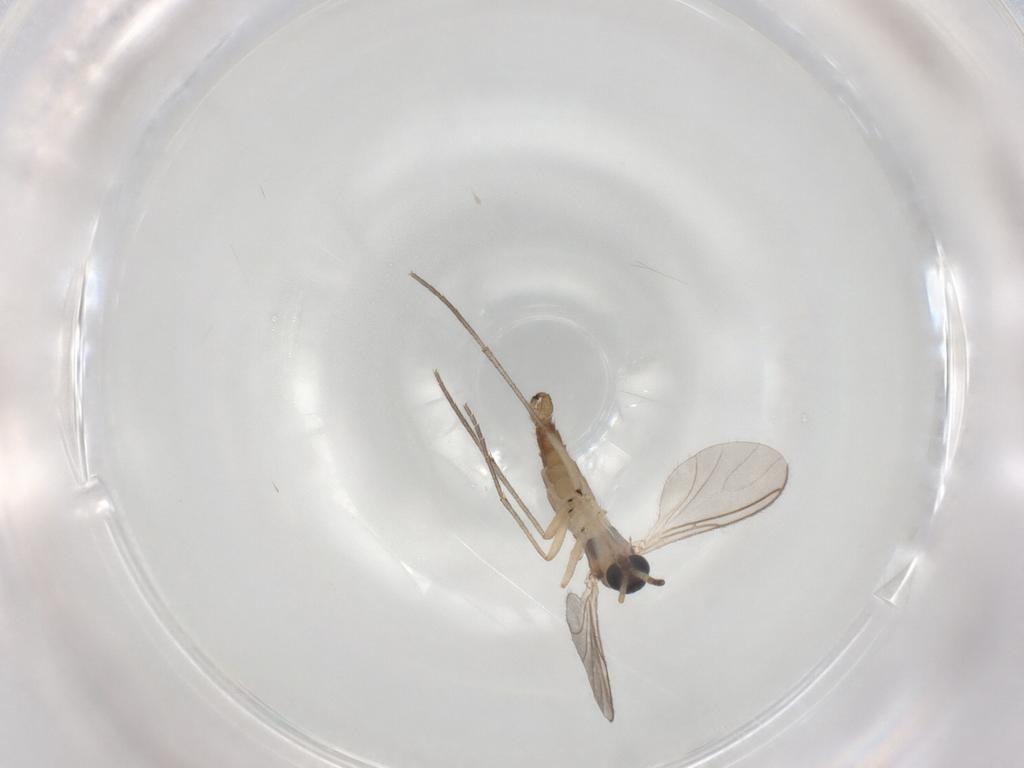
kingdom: Animalia
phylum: Arthropoda
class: Insecta
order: Diptera
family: Sciaridae
